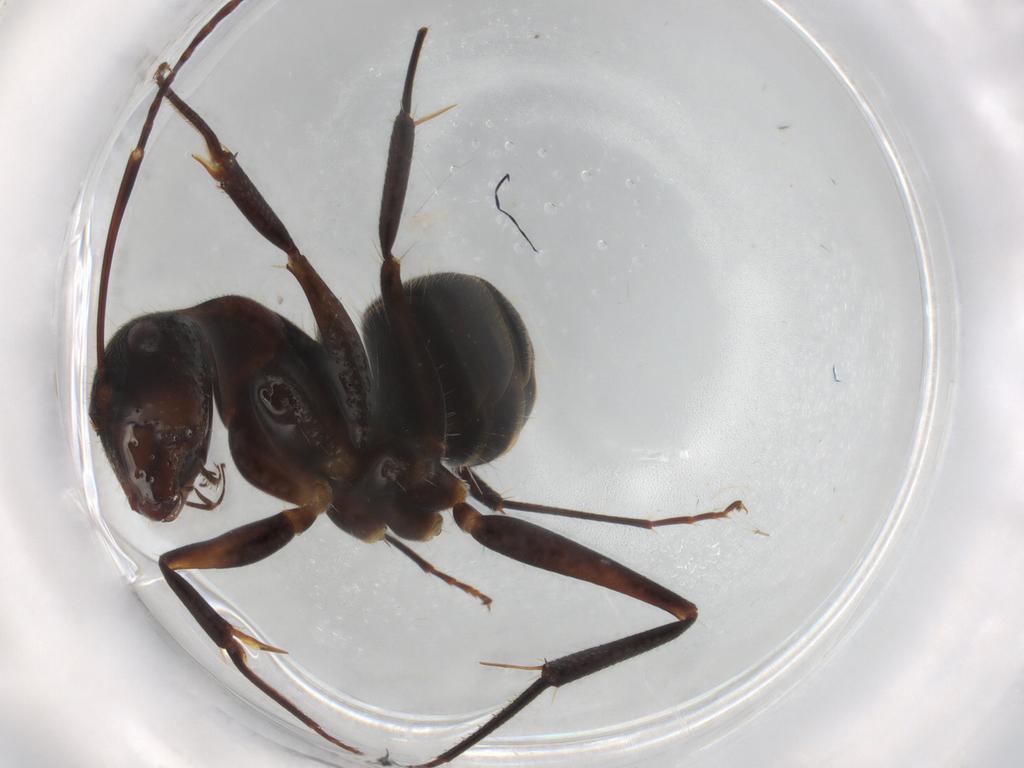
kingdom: Animalia
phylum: Arthropoda
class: Insecta
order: Hymenoptera
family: Formicidae
